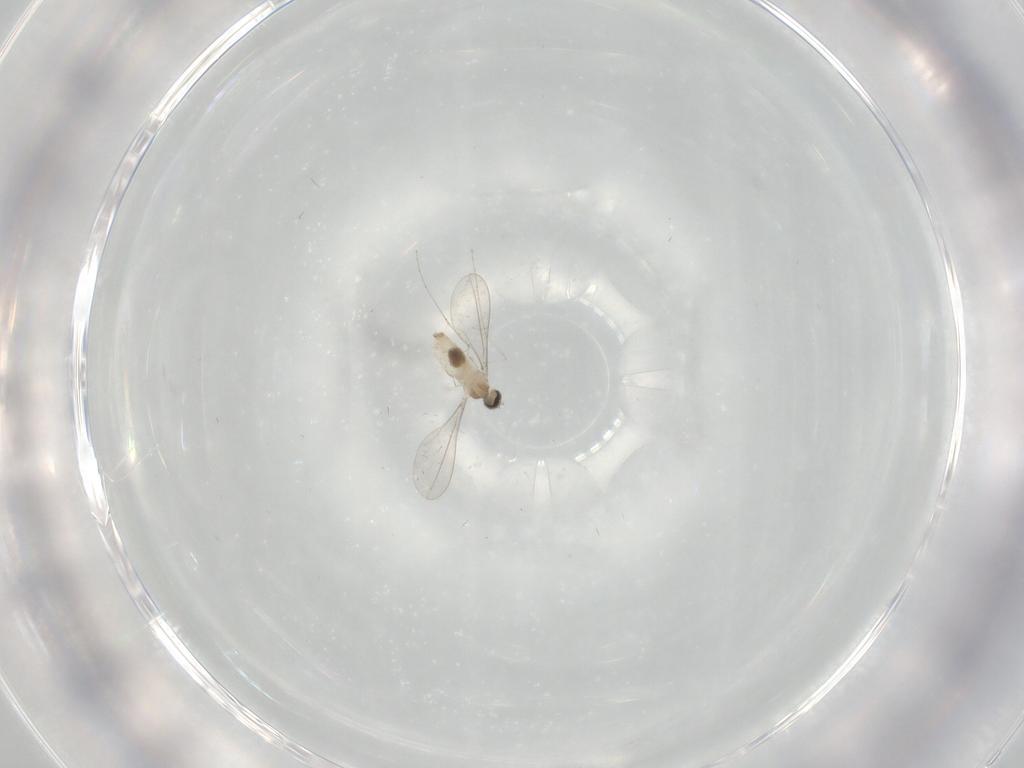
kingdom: Animalia
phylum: Arthropoda
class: Insecta
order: Diptera
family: Cecidomyiidae
